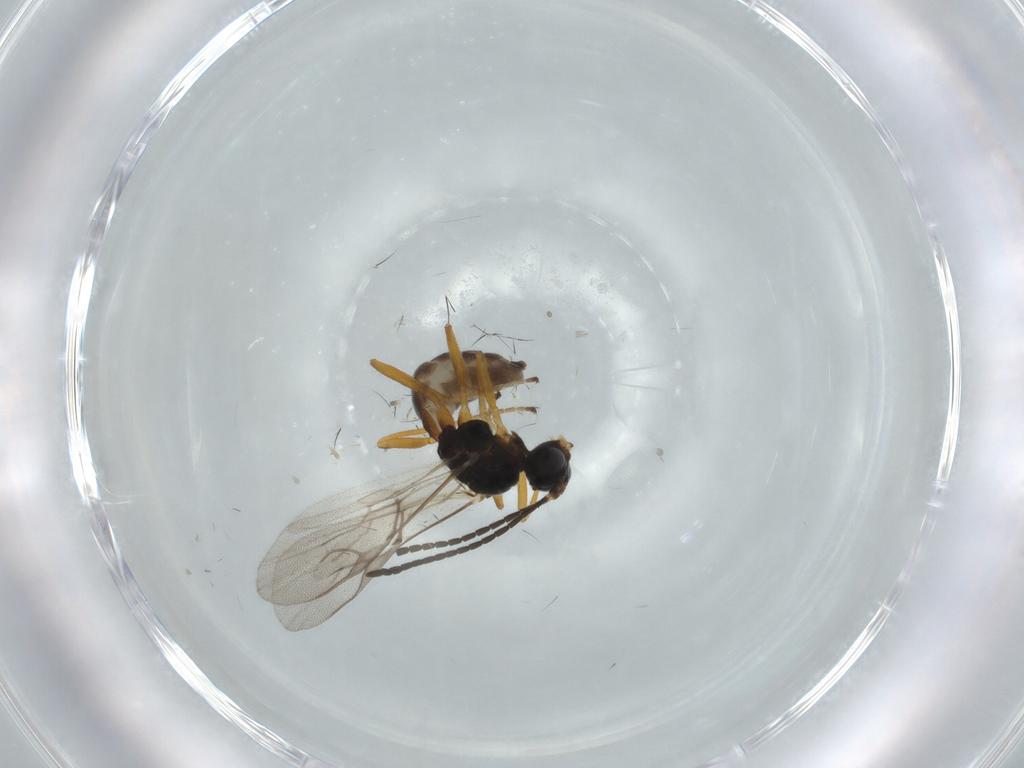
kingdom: Animalia
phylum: Arthropoda
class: Insecta
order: Hymenoptera
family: Braconidae
